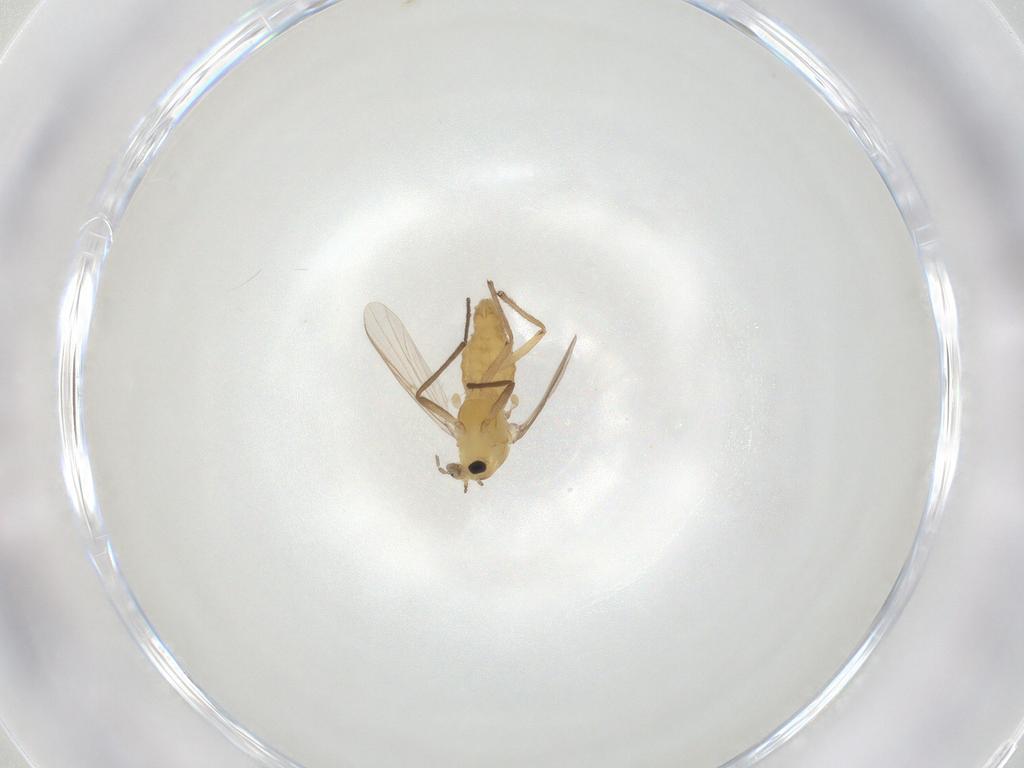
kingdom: Animalia
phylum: Arthropoda
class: Insecta
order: Diptera
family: Chironomidae
